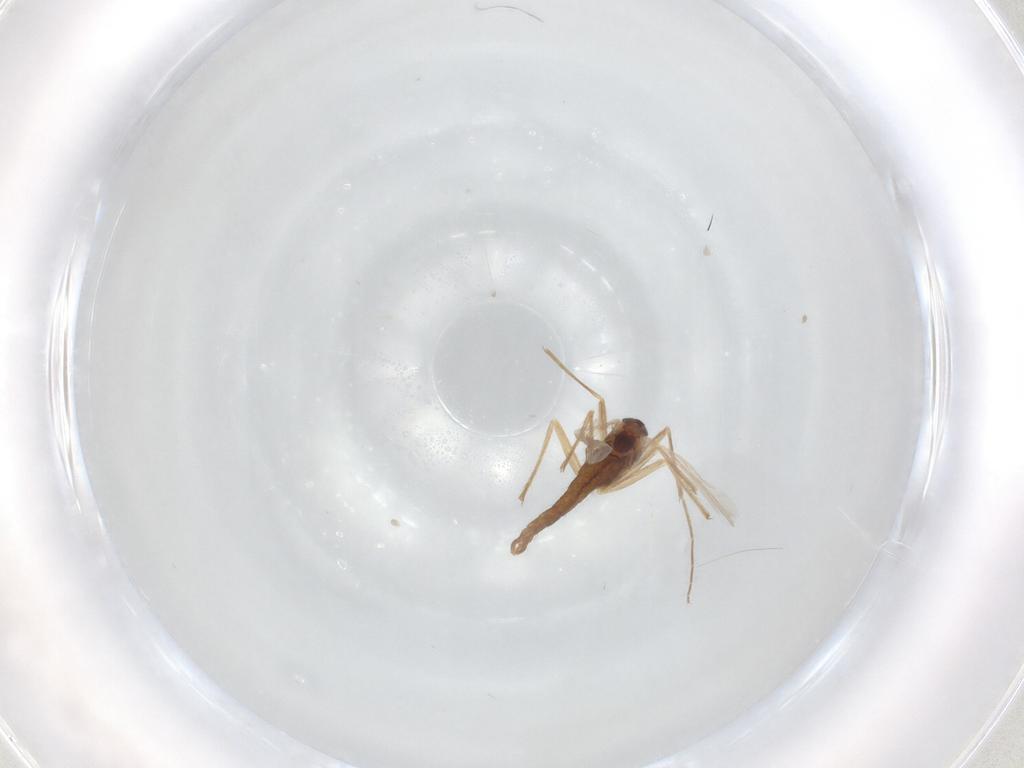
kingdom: Animalia
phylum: Arthropoda
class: Insecta
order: Diptera
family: Chironomidae
